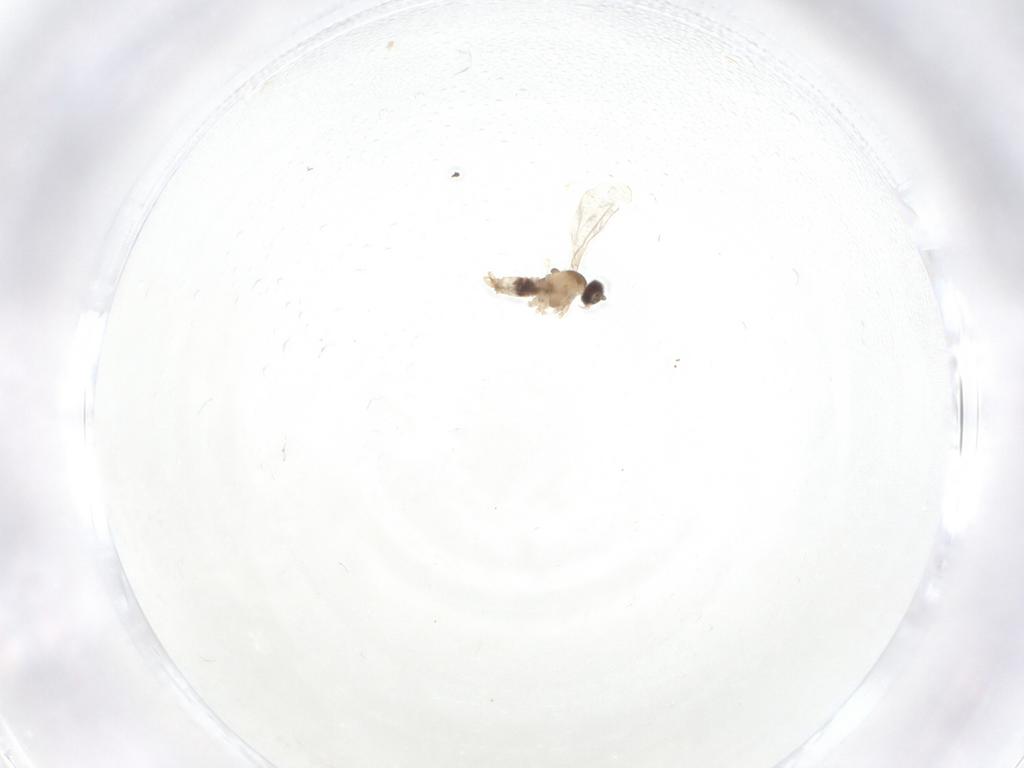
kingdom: Animalia
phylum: Arthropoda
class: Insecta
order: Diptera
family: Cecidomyiidae
